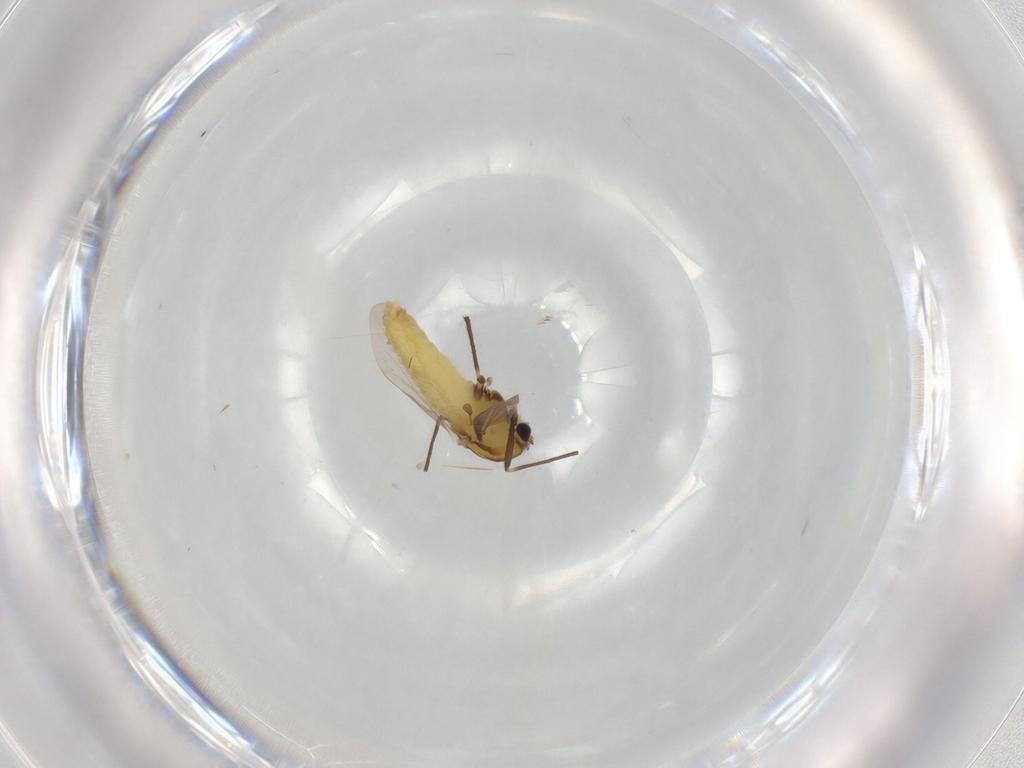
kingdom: Animalia
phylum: Arthropoda
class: Insecta
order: Diptera
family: Chironomidae
